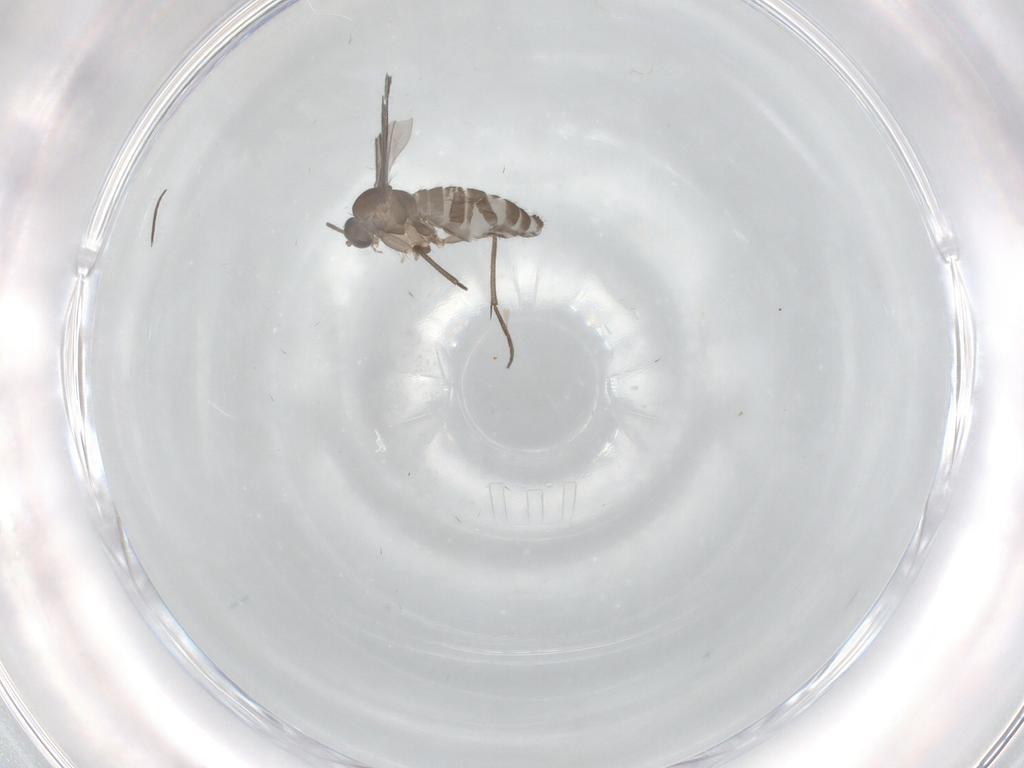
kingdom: Animalia
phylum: Arthropoda
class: Insecta
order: Diptera
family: Sciaridae
